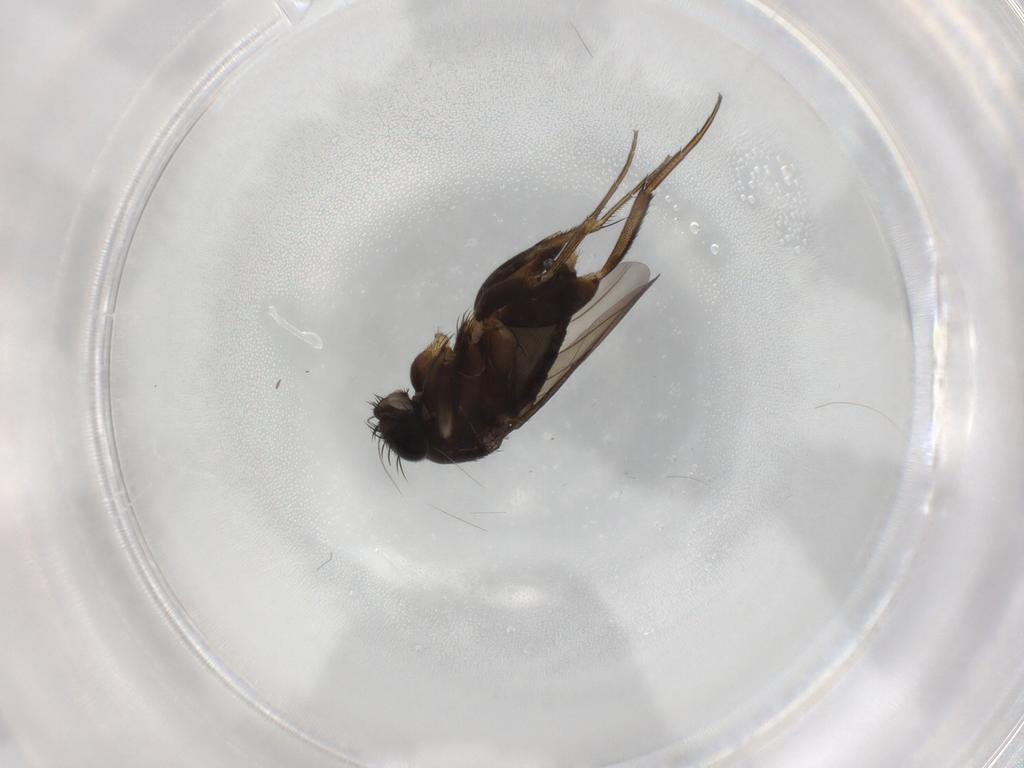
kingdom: Animalia
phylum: Arthropoda
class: Insecta
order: Diptera
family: Phoridae
